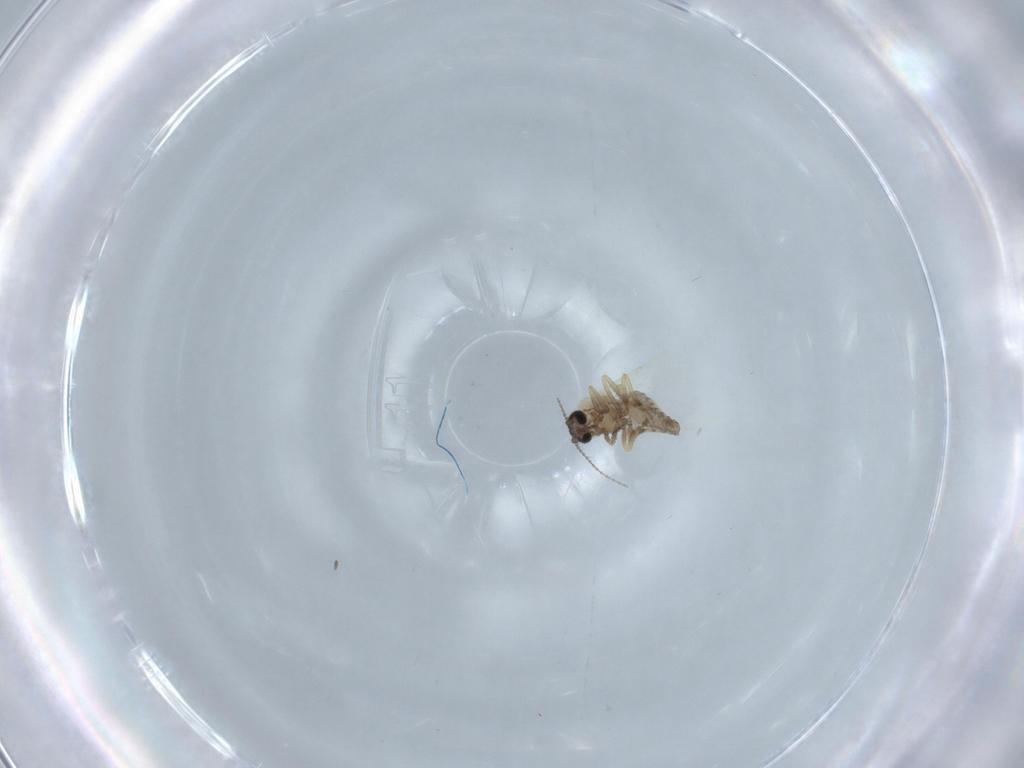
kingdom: Animalia
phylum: Arthropoda
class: Insecta
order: Diptera
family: Ceratopogonidae
